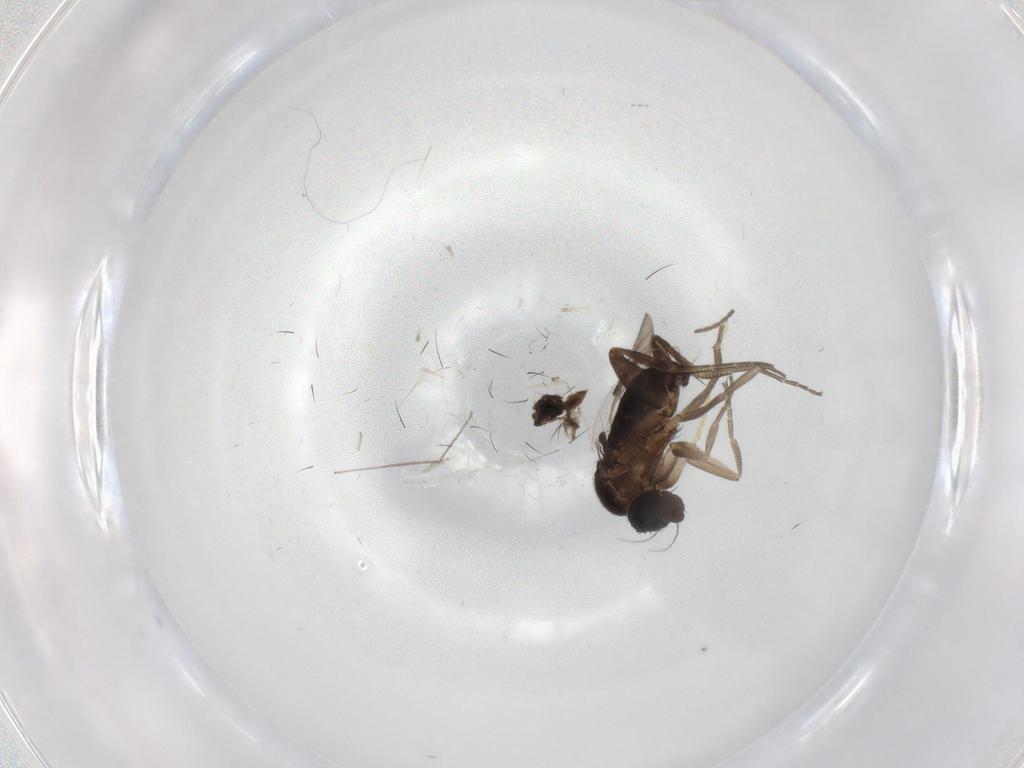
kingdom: Animalia
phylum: Arthropoda
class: Insecta
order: Diptera
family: Phoridae
